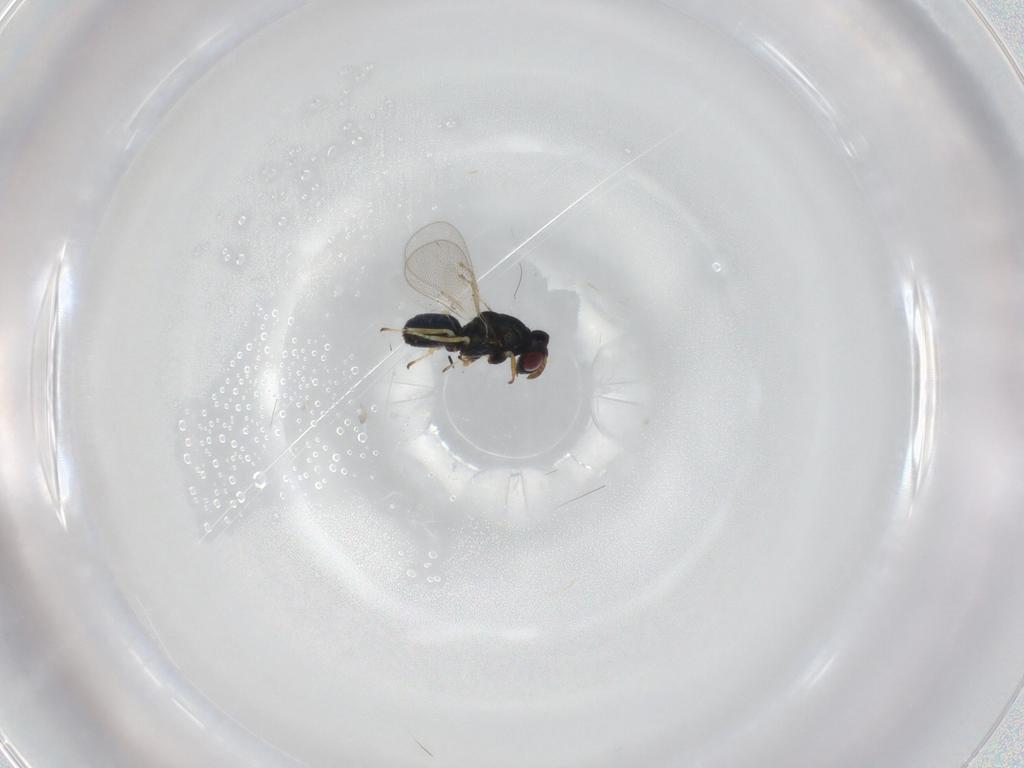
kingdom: Animalia
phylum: Arthropoda
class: Insecta
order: Hymenoptera
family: Eulophidae
